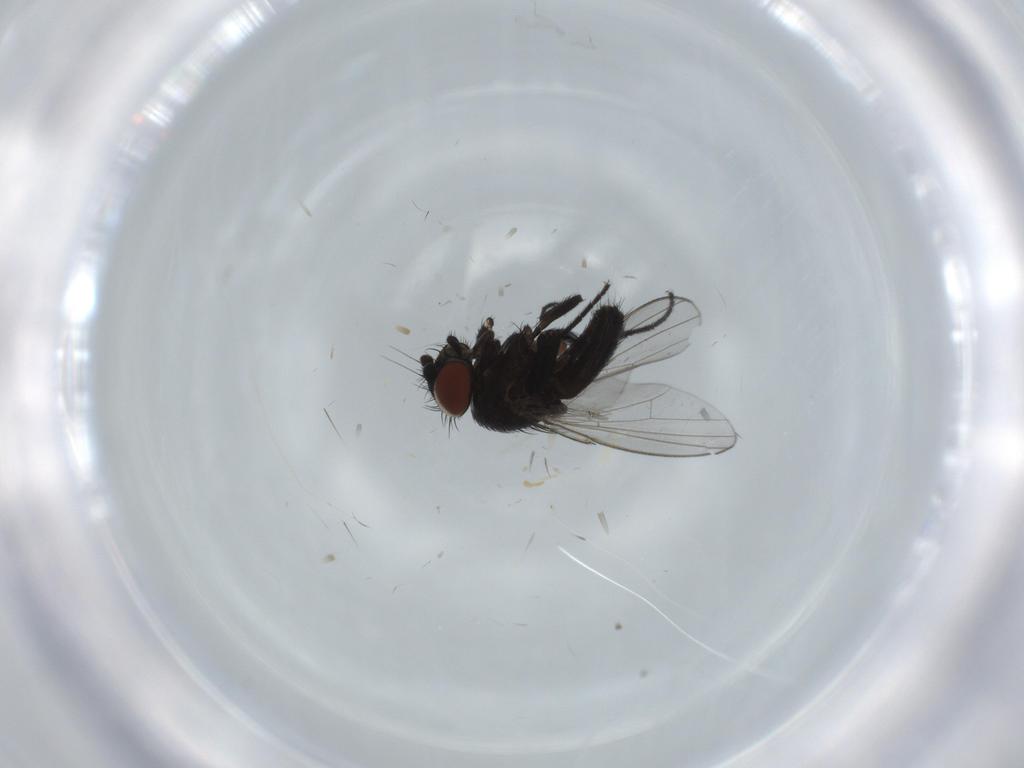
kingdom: Animalia
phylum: Arthropoda
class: Insecta
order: Diptera
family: Milichiidae
